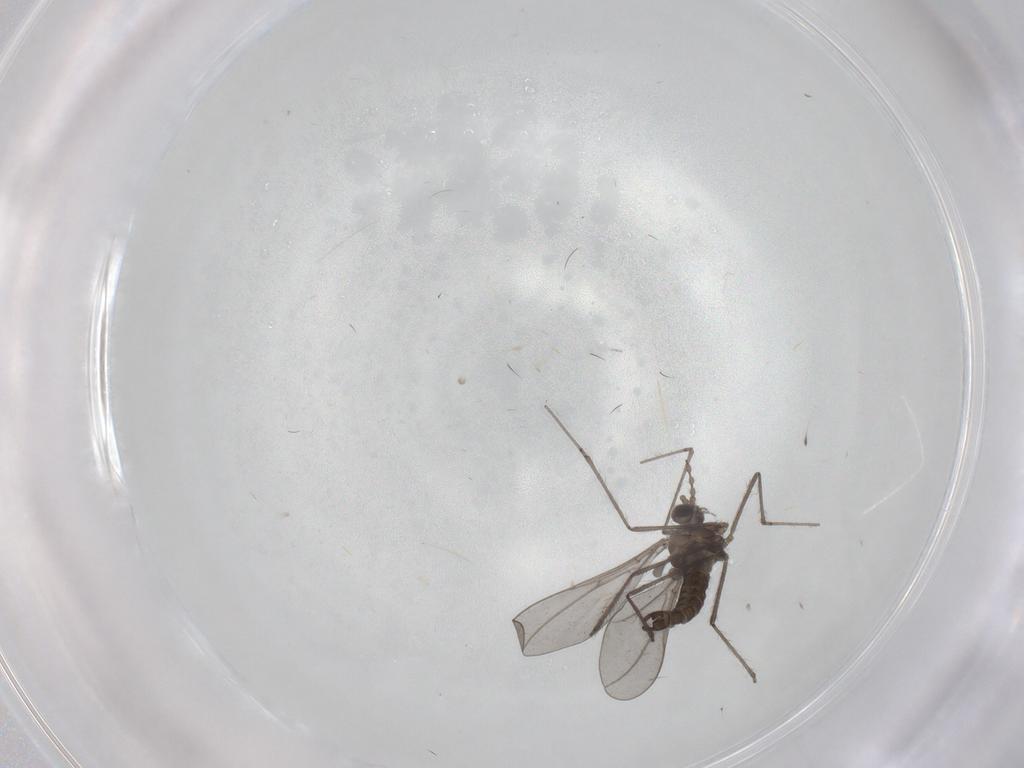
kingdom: Animalia
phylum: Arthropoda
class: Insecta
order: Diptera
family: Cecidomyiidae
